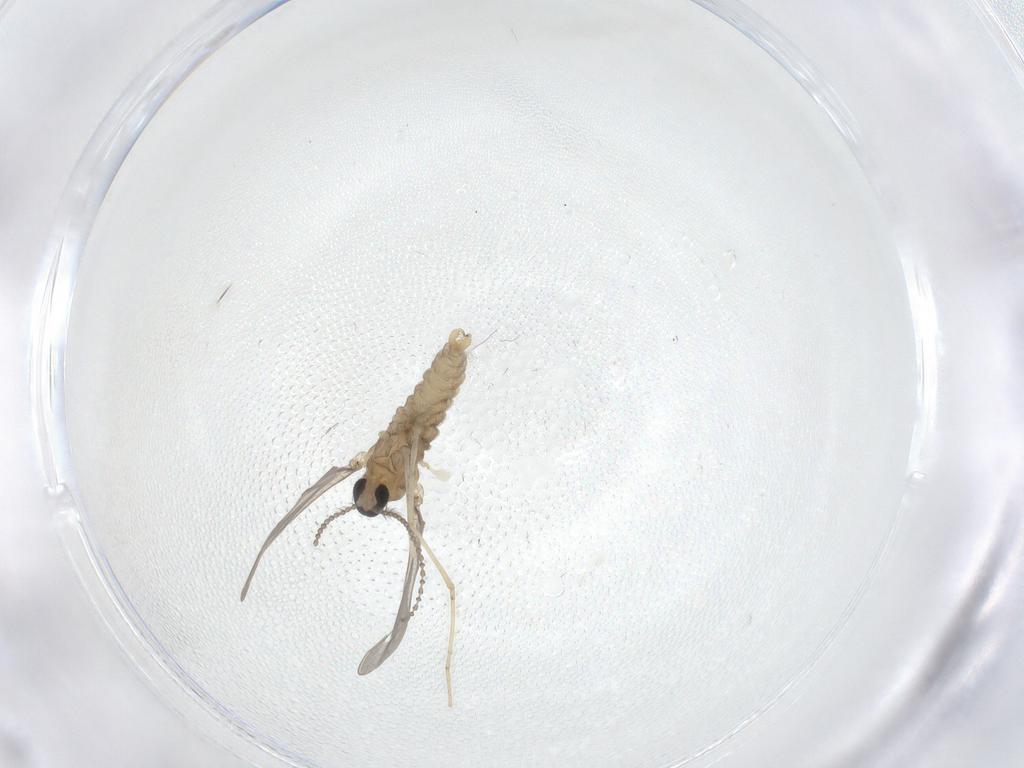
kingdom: Animalia
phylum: Arthropoda
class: Insecta
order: Diptera
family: Cecidomyiidae
